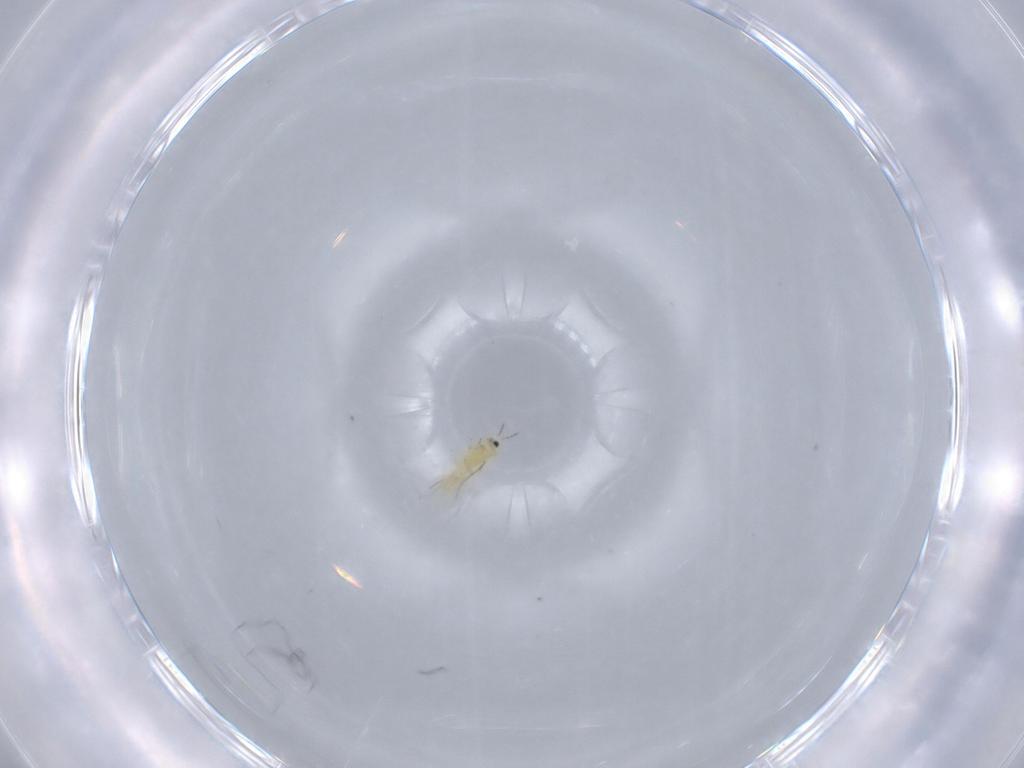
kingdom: Animalia
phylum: Arthropoda
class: Insecta
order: Thysanoptera
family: Thripidae
